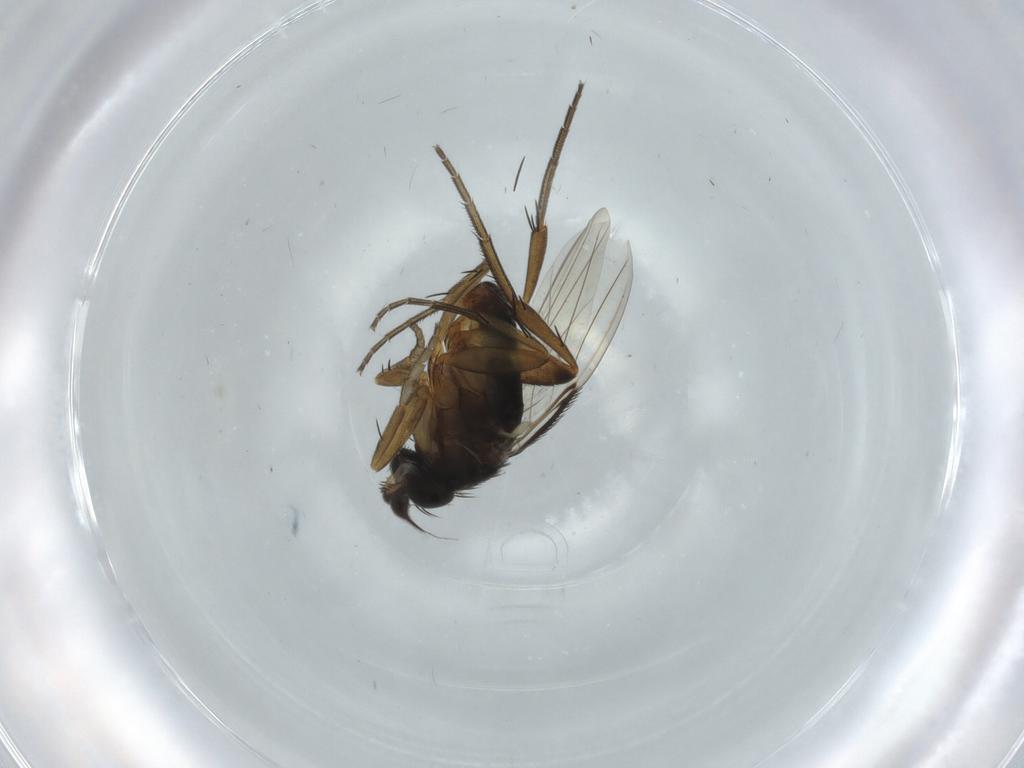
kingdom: Animalia
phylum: Arthropoda
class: Insecta
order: Diptera
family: Phoridae
